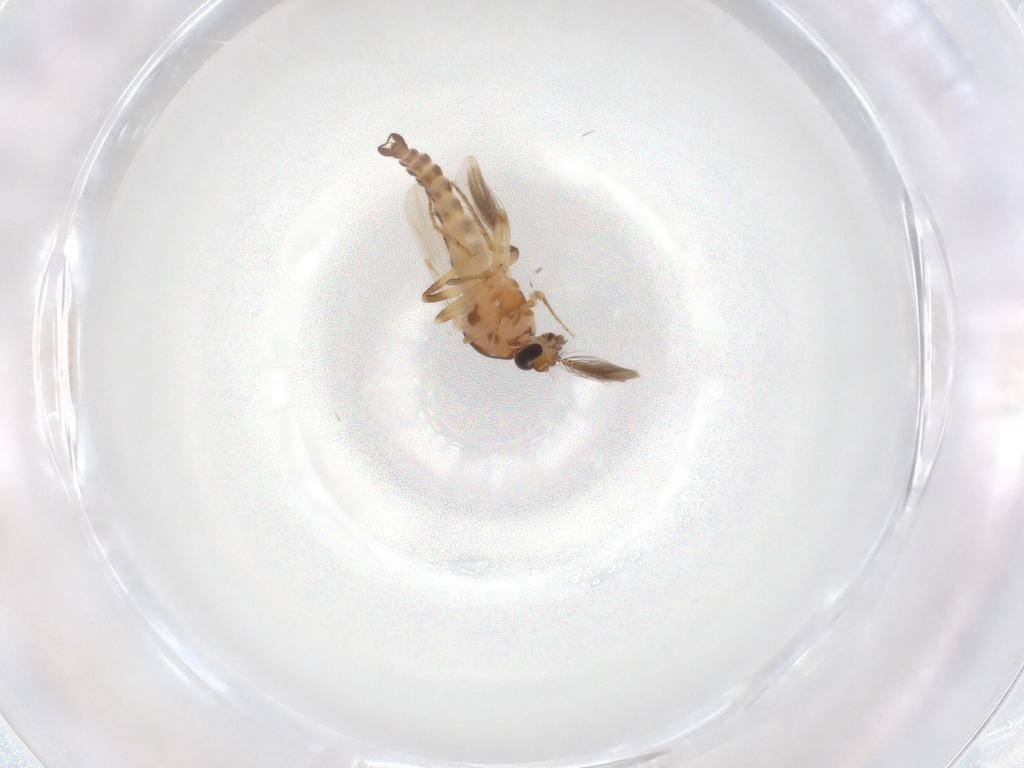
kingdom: Animalia
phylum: Arthropoda
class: Insecta
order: Diptera
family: Ceratopogonidae
